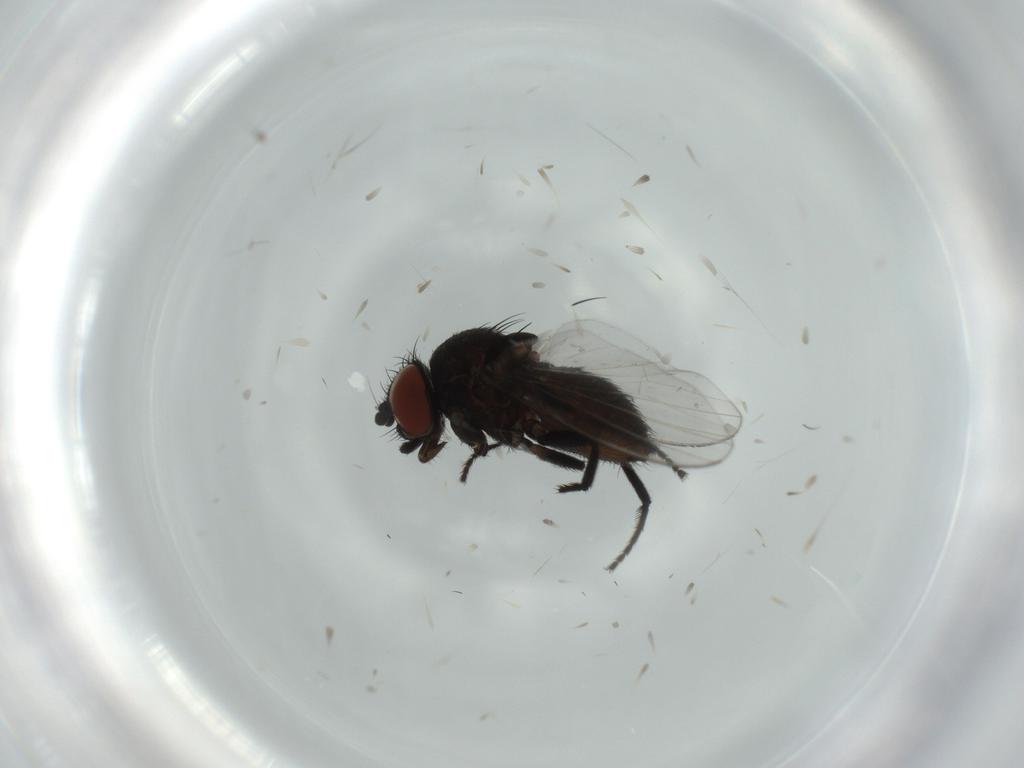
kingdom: Animalia
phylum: Arthropoda
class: Insecta
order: Diptera
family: Milichiidae
